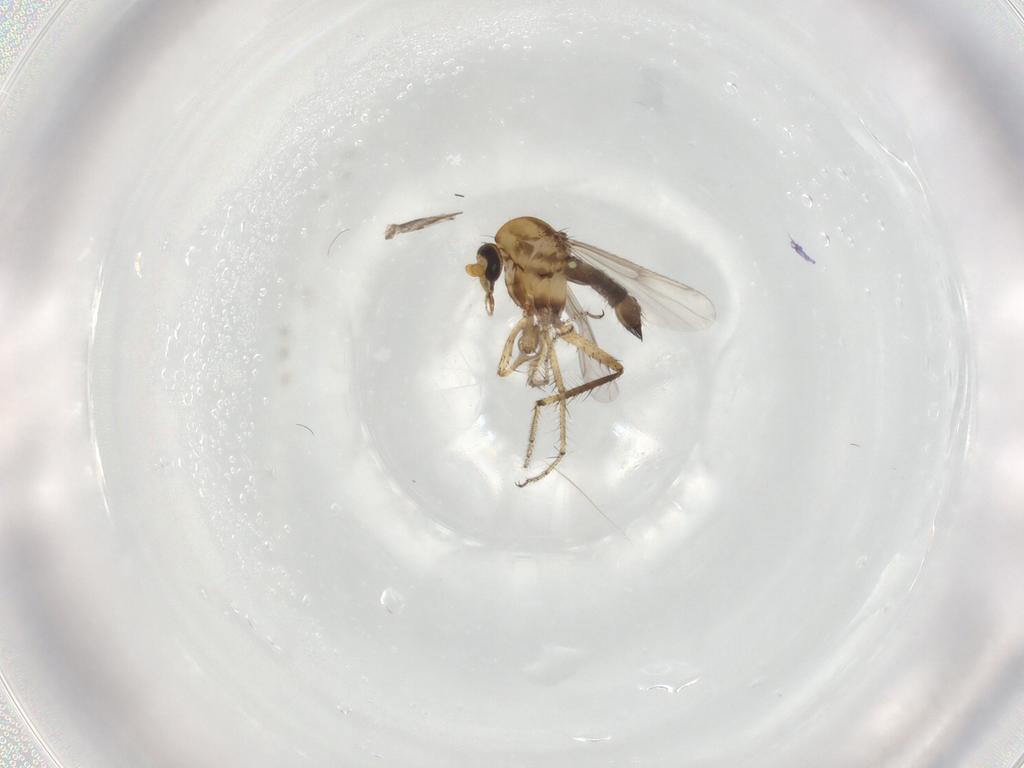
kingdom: Animalia
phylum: Arthropoda
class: Insecta
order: Diptera
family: Ceratopogonidae
